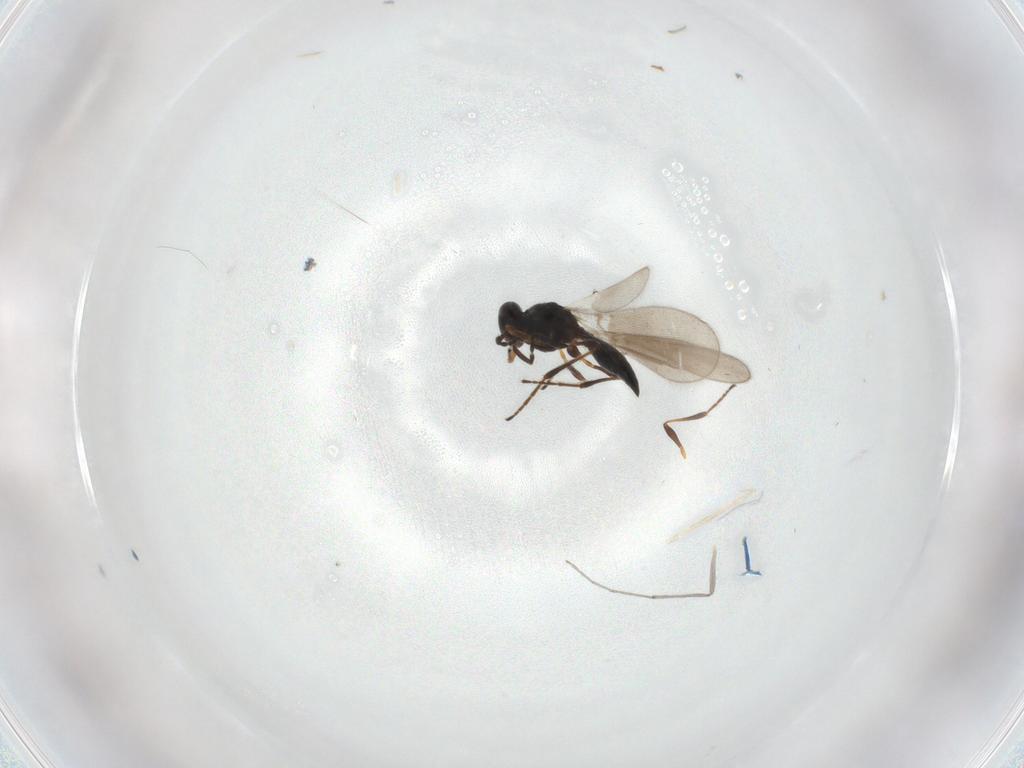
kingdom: Animalia
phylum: Arthropoda
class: Insecta
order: Hymenoptera
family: Platygastridae
